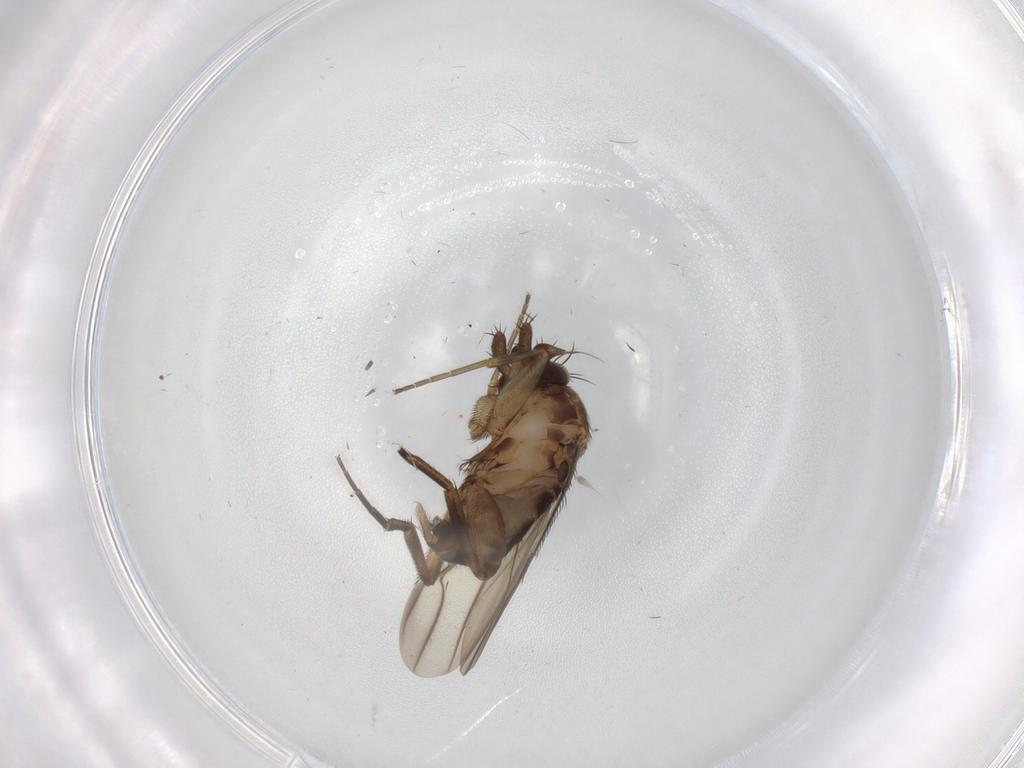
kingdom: Animalia
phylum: Arthropoda
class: Insecta
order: Diptera
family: Phoridae
